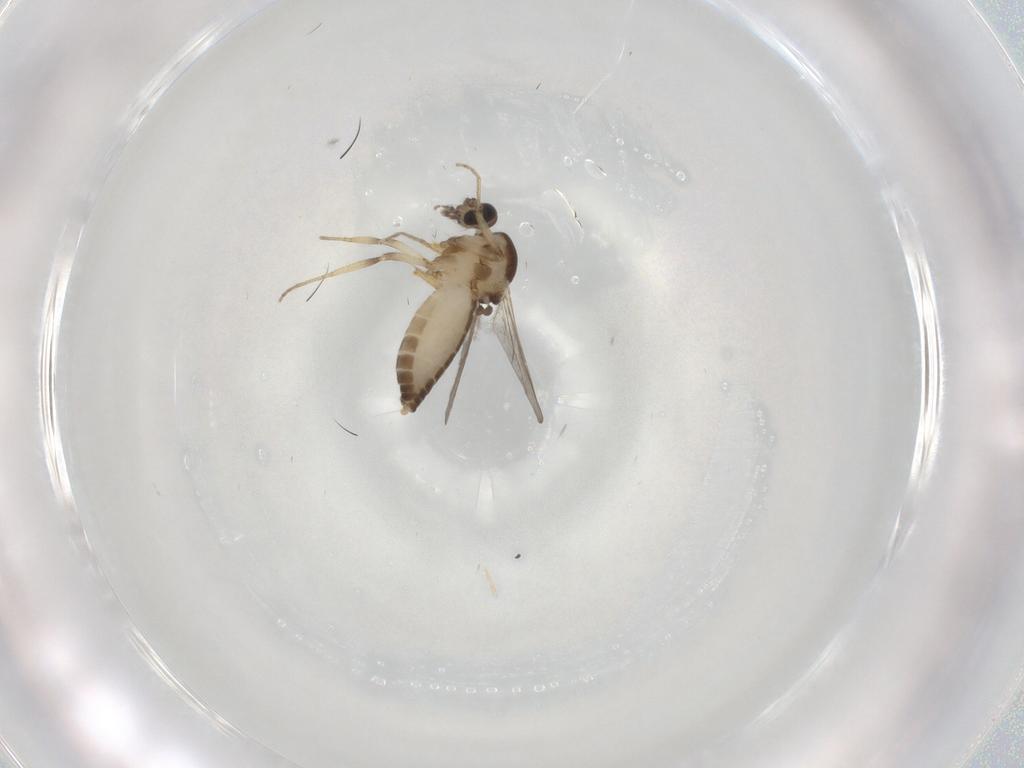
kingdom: Animalia
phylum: Arthropoda
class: Insecta
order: Diptera
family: Ceratopogonidae
